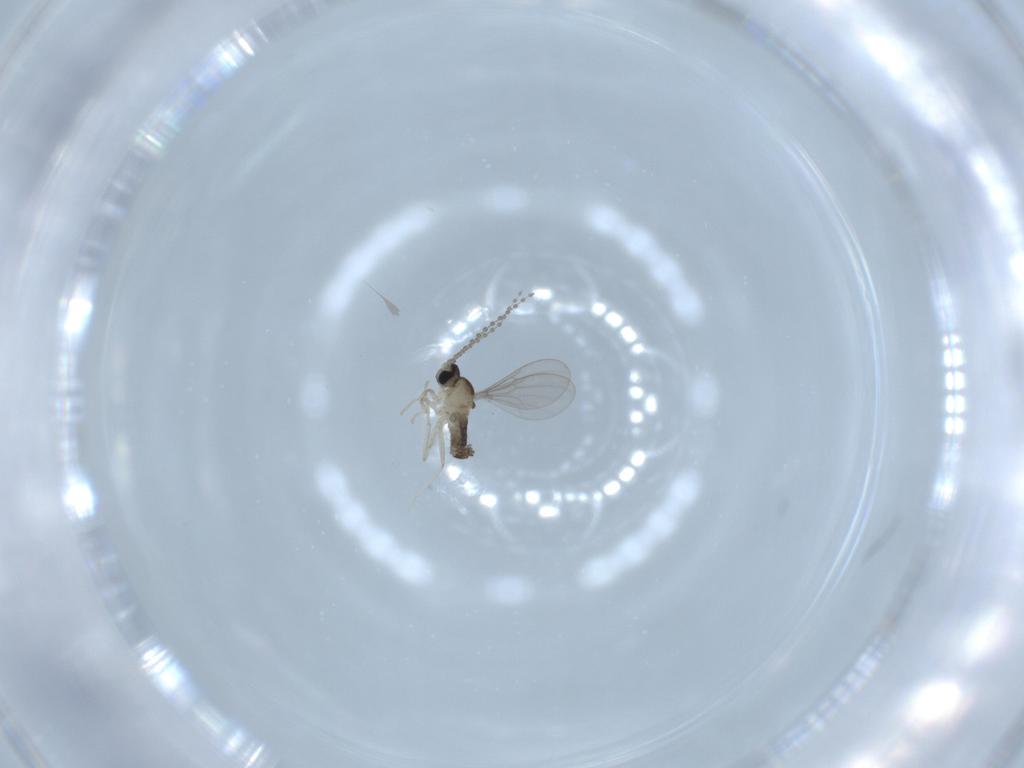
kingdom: Animalia
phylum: Arthropoda
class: Insecta
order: Diptera
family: Cecidomyiidae
